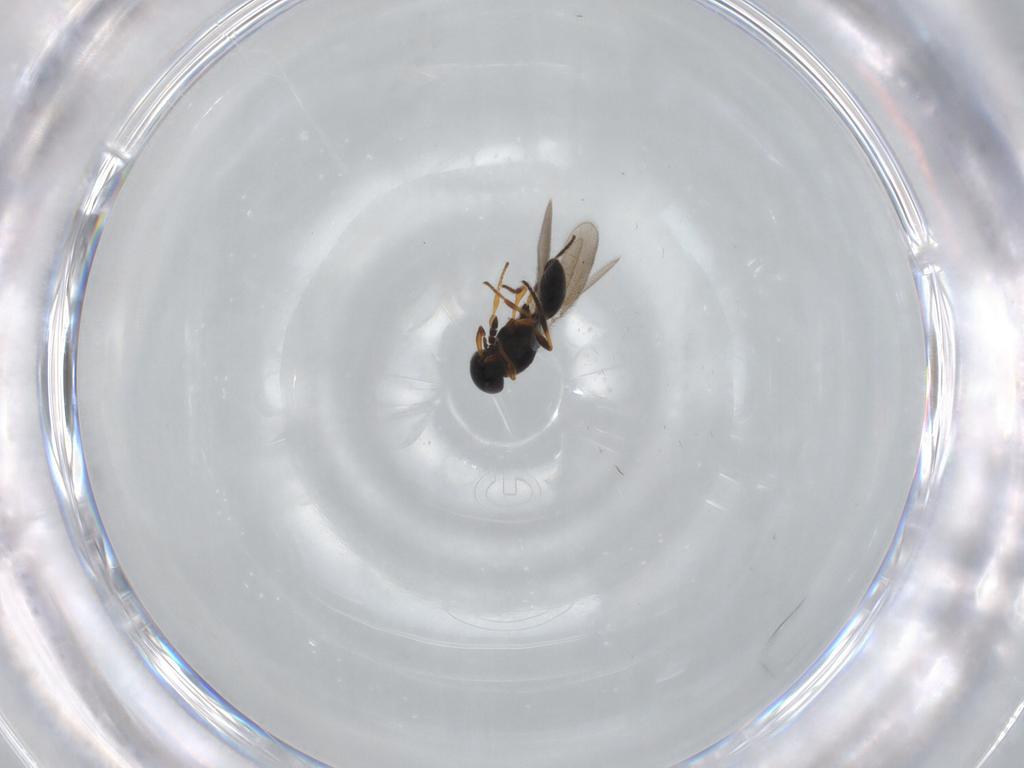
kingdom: Animalia
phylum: Arthropoda
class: Insecta
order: Hymenoptera
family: Platygastridae
